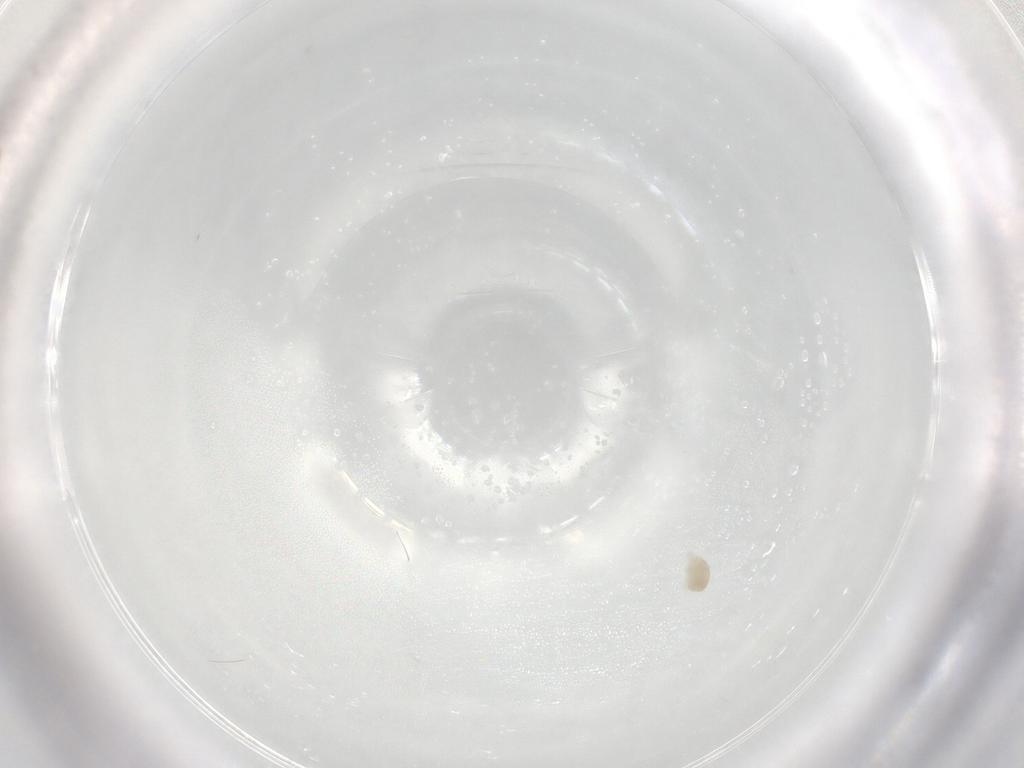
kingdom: Animalia
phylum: Arthropoda
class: Arachnida
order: Trombidiformes
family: Eupodidae
